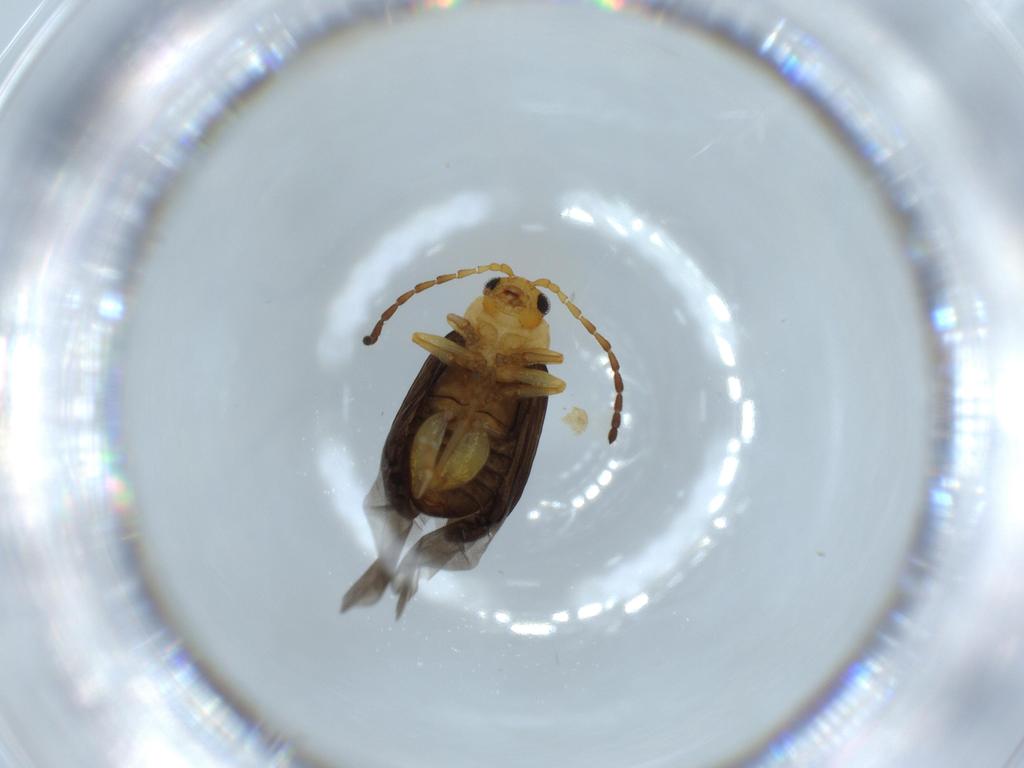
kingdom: Animalia
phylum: Arthropoda
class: Insecta
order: Coleoptera
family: Chrysomelidae
